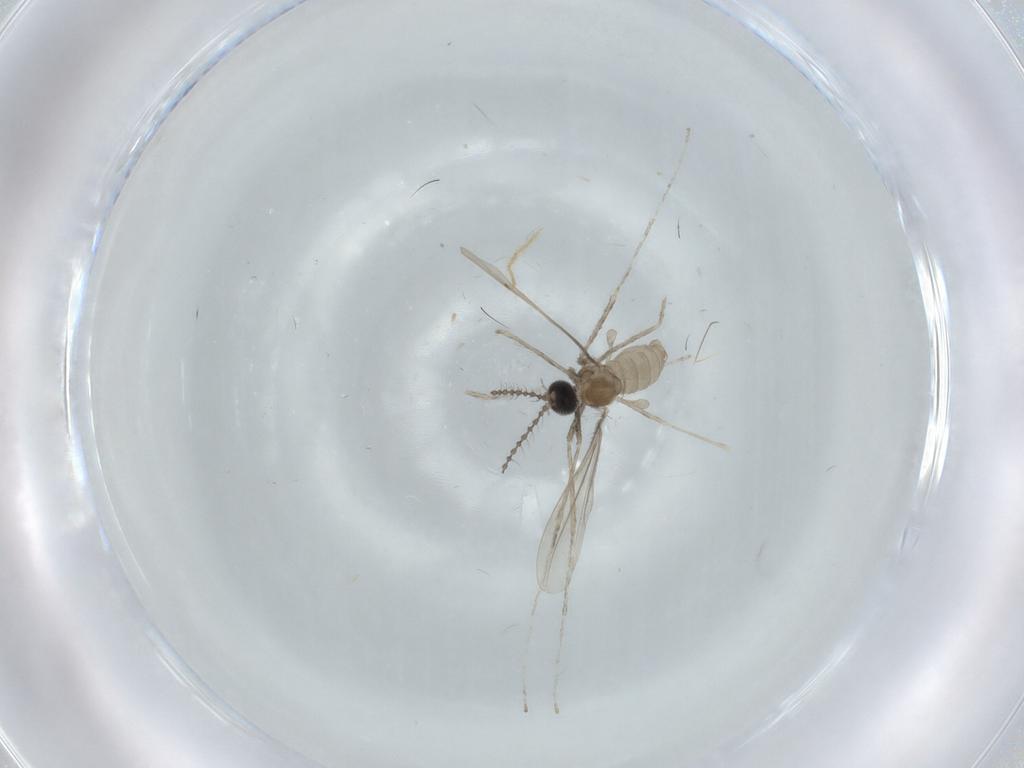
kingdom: Animalia
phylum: Arthropoda
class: Insecta
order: Diptera
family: Cecidomyiidae
